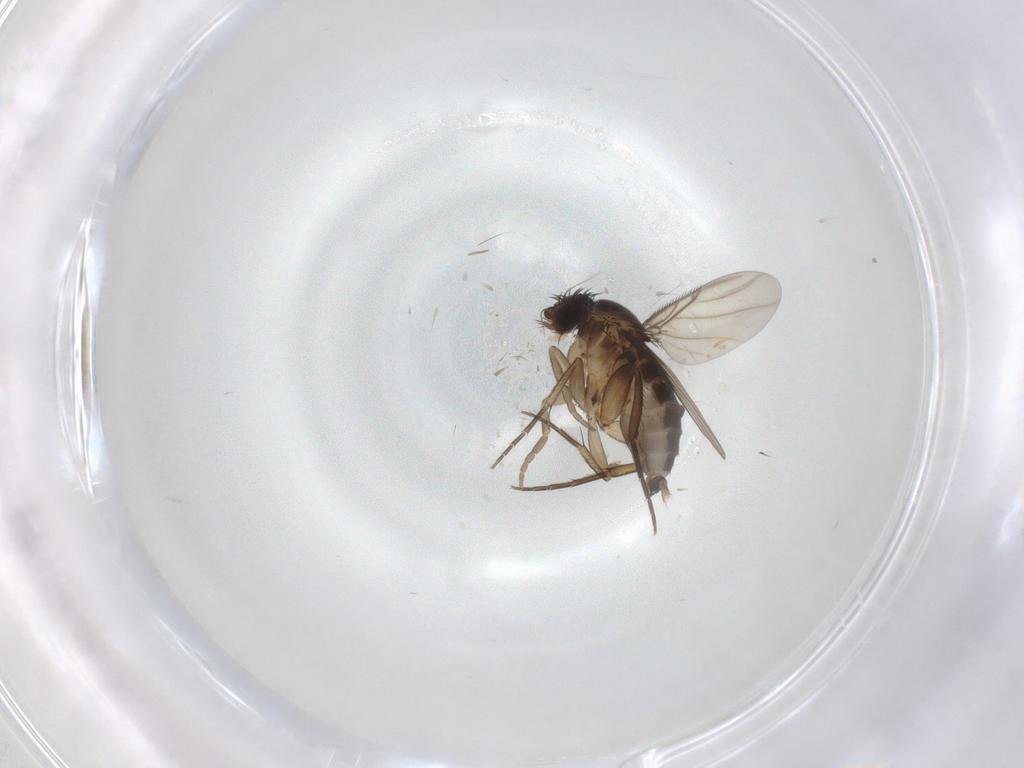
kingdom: Animalia
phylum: Arthropoda
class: Insecta
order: Diptera
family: Phoridae
